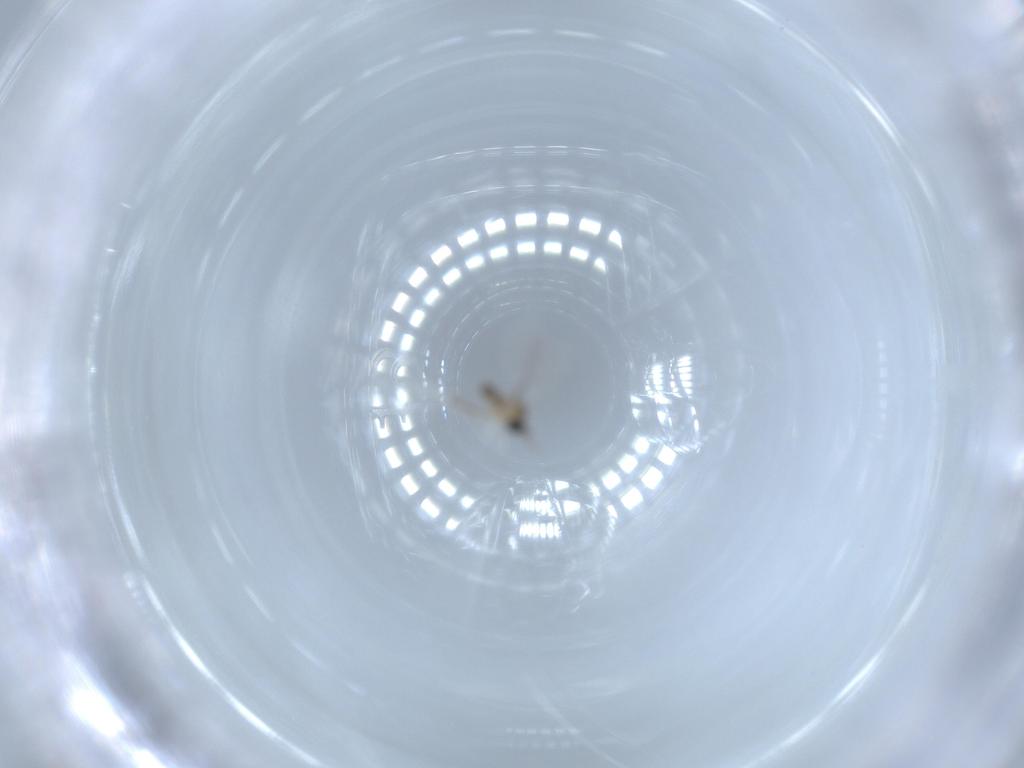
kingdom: Animalia
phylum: Arthropoda
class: Insecta
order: Diptera
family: Cecidomyiidae
